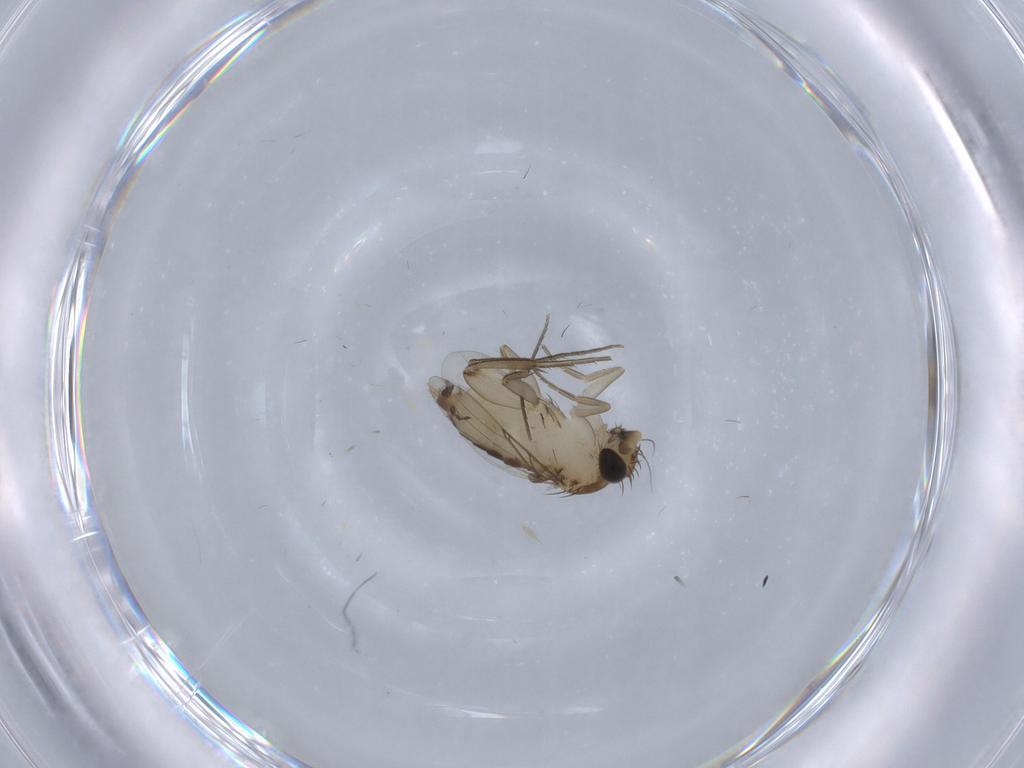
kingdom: Animalia
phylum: Arthropoda
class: Insecta
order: Diptera
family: Phoridae
